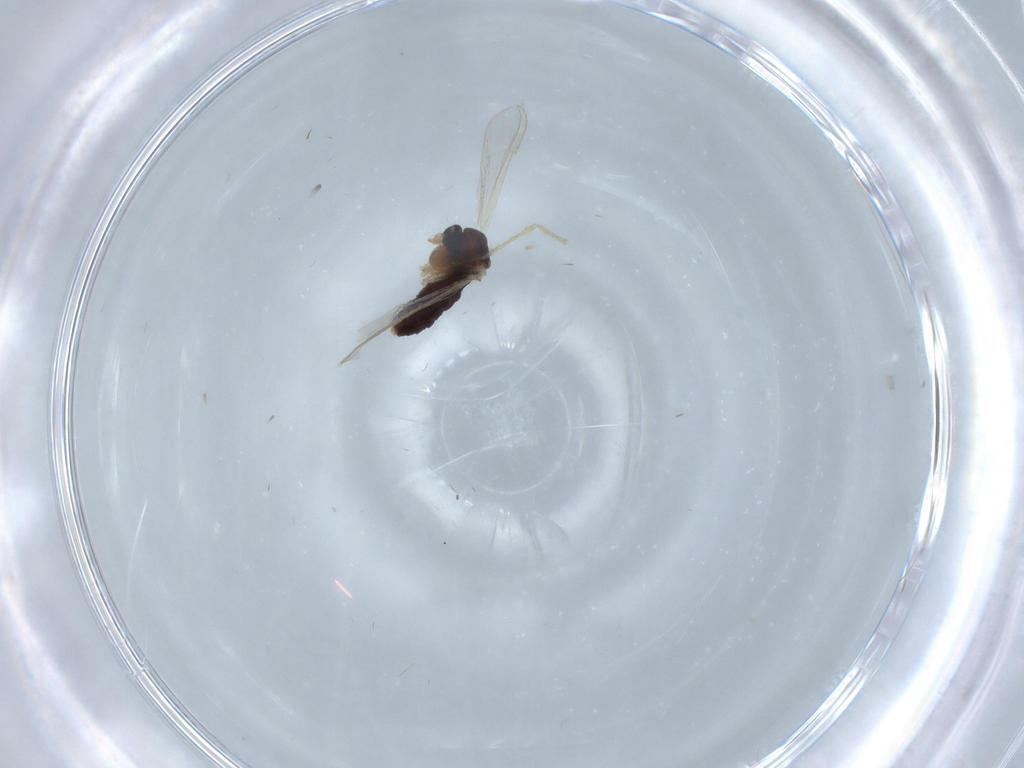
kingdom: Animalia
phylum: Arthropoda
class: Insecta
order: Diptera
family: Chironomidae
